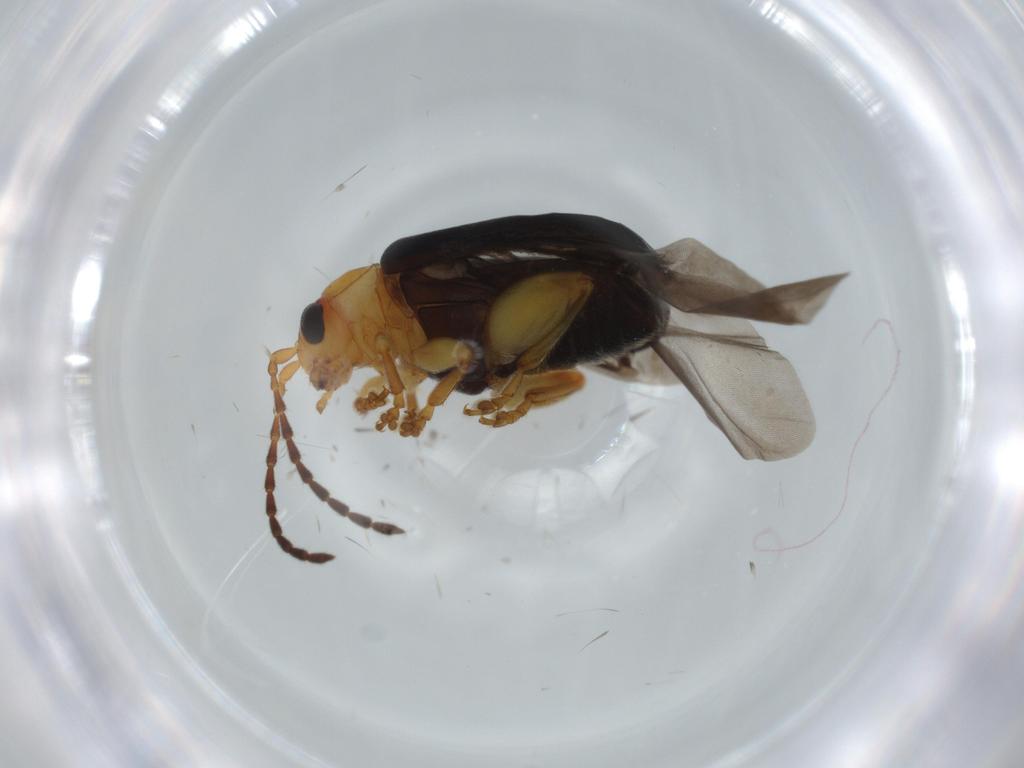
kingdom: Animalia
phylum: Arthropoda
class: Insecta
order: Coleoptera
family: Chrysomelidae
